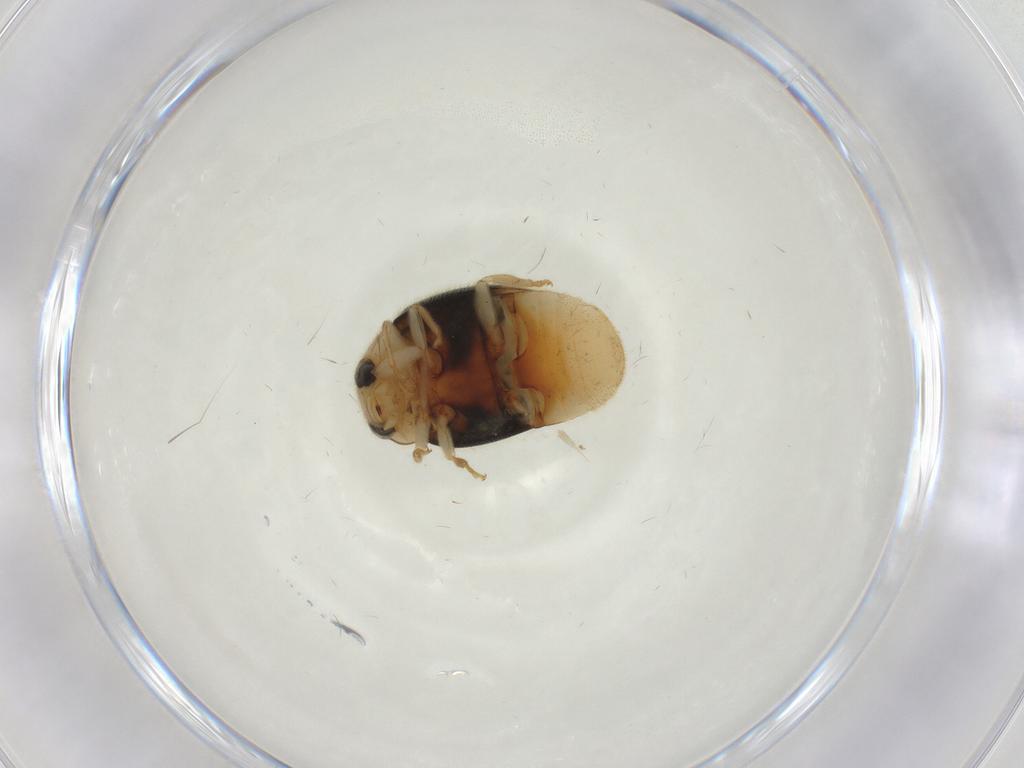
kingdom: Animalia
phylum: Arthropoda
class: Insecta
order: Coleoptera
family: Coccinellidae
